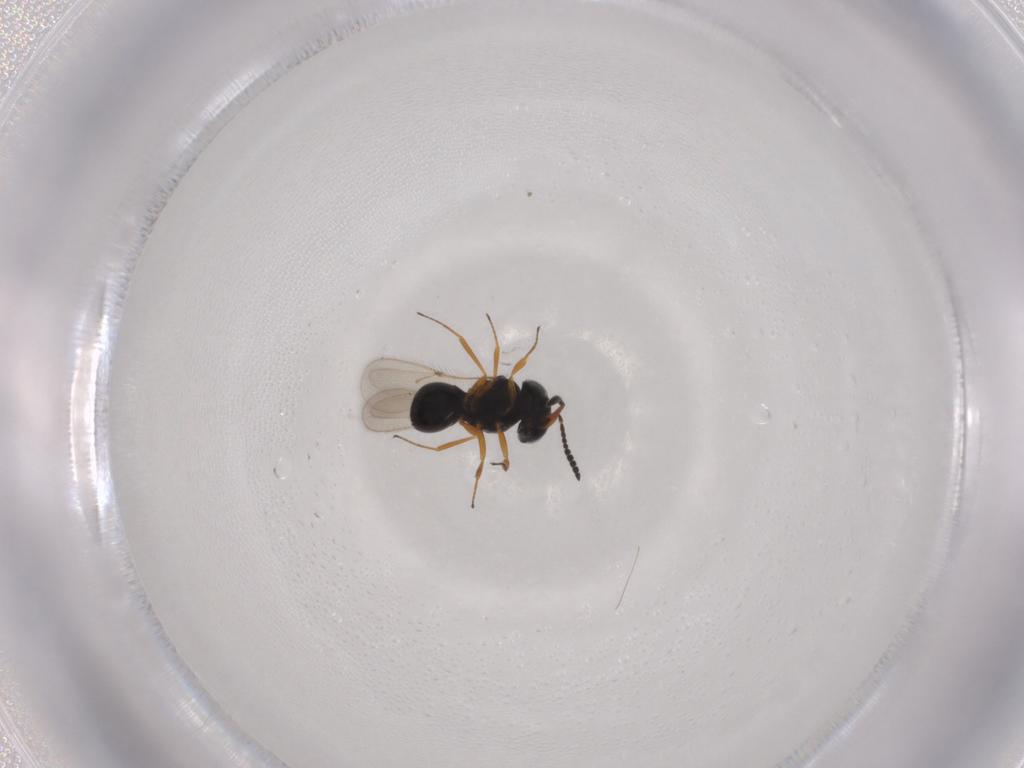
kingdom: Animalia
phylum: Arthropoda
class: Insecta
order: Hymenoptera
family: Scelionidae
